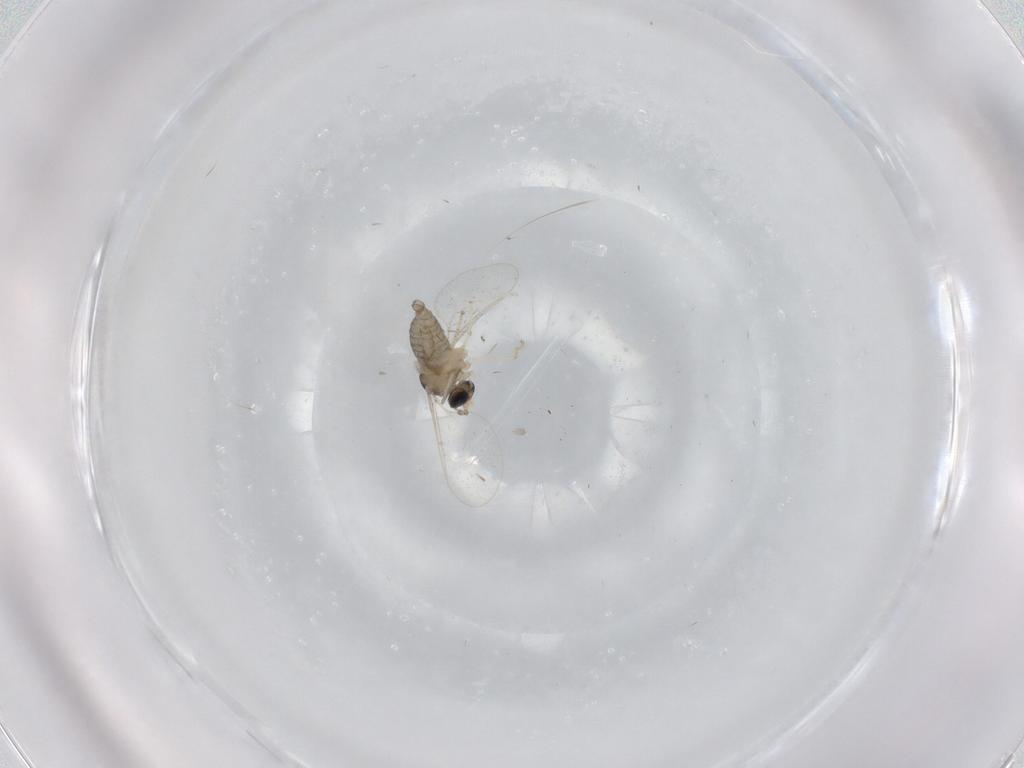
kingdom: Animalia
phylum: Arthropoda
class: Insecta
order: Diptera
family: Cecidomyiidae
